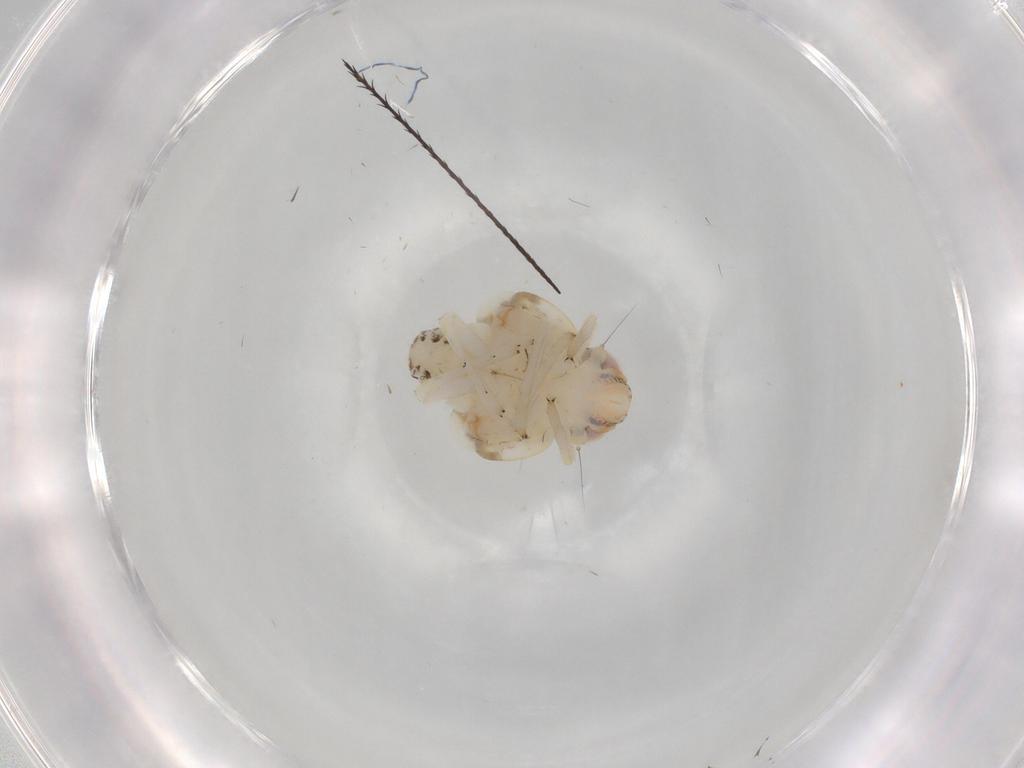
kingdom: Animalia
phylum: Arthropoda
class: Insecta
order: Hemiptera
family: Nogodinidae
